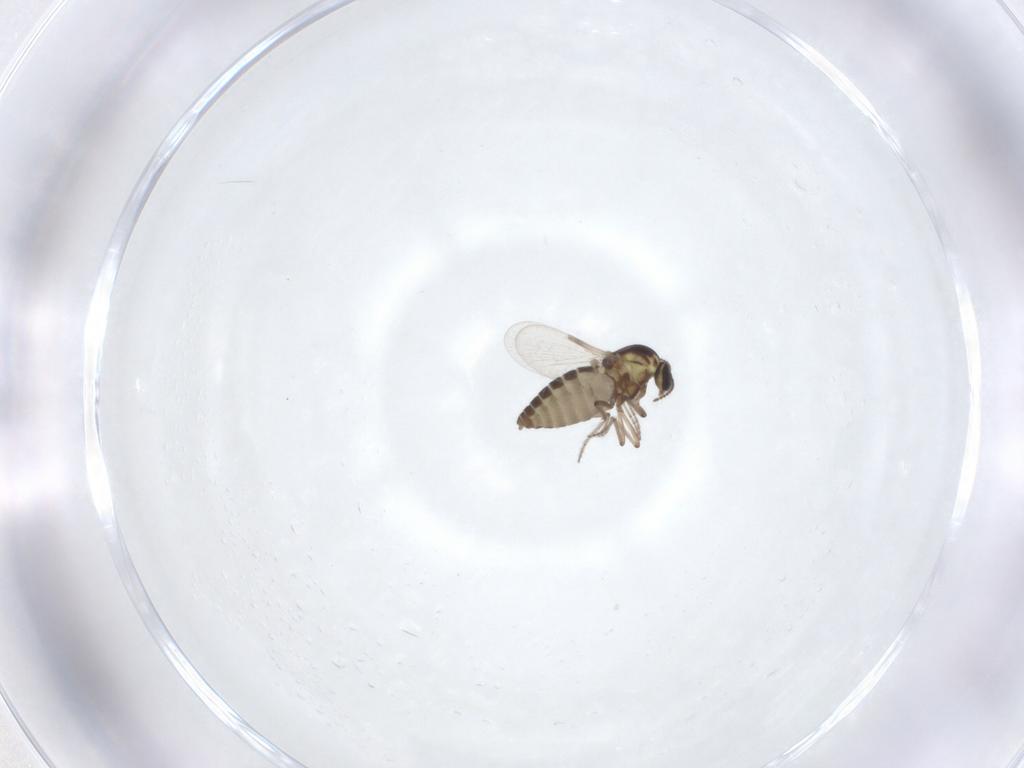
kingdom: Animalia
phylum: Arthropoda
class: Insecta
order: Diptera
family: Ceratopogonidae
